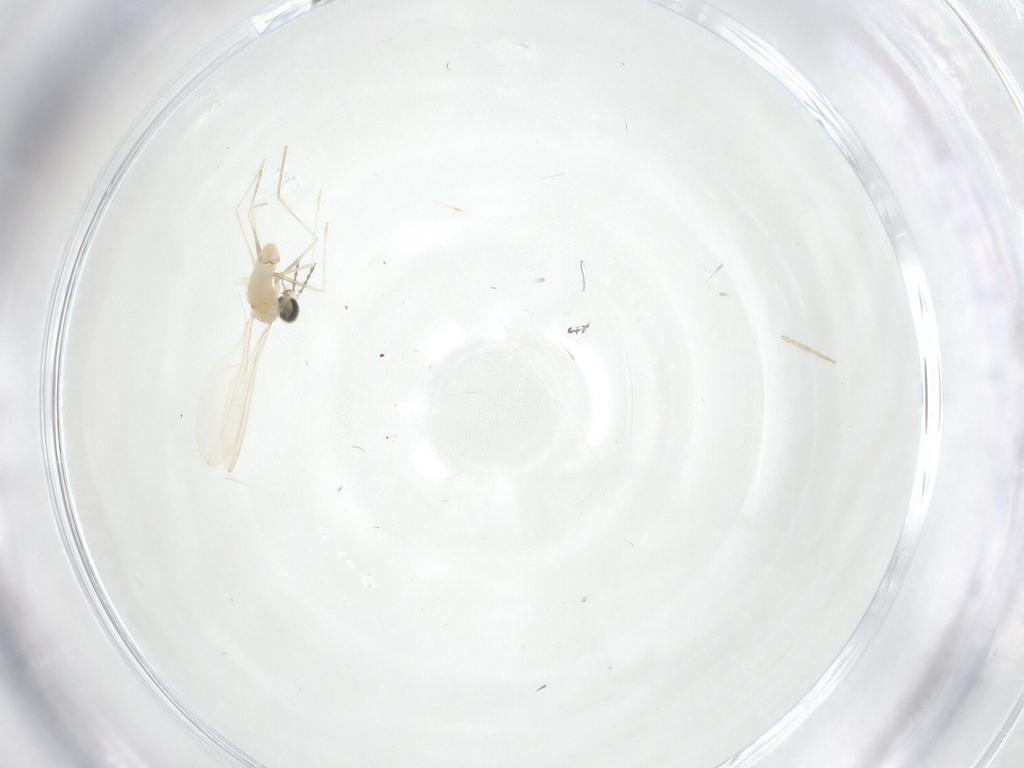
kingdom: Animalia
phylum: Arthropoda
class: Insecta
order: Diptera
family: Cecidomyiidae
